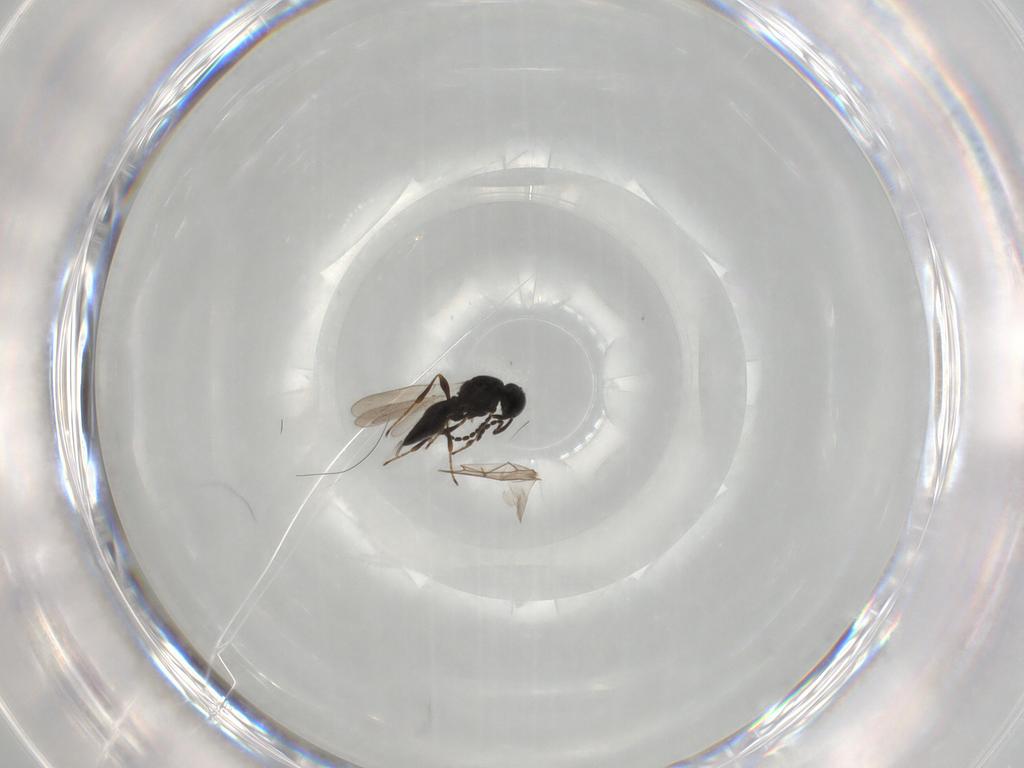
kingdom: Animalia
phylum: Arthropoda
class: Insecta
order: Hymenoptera
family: Platygastridae
